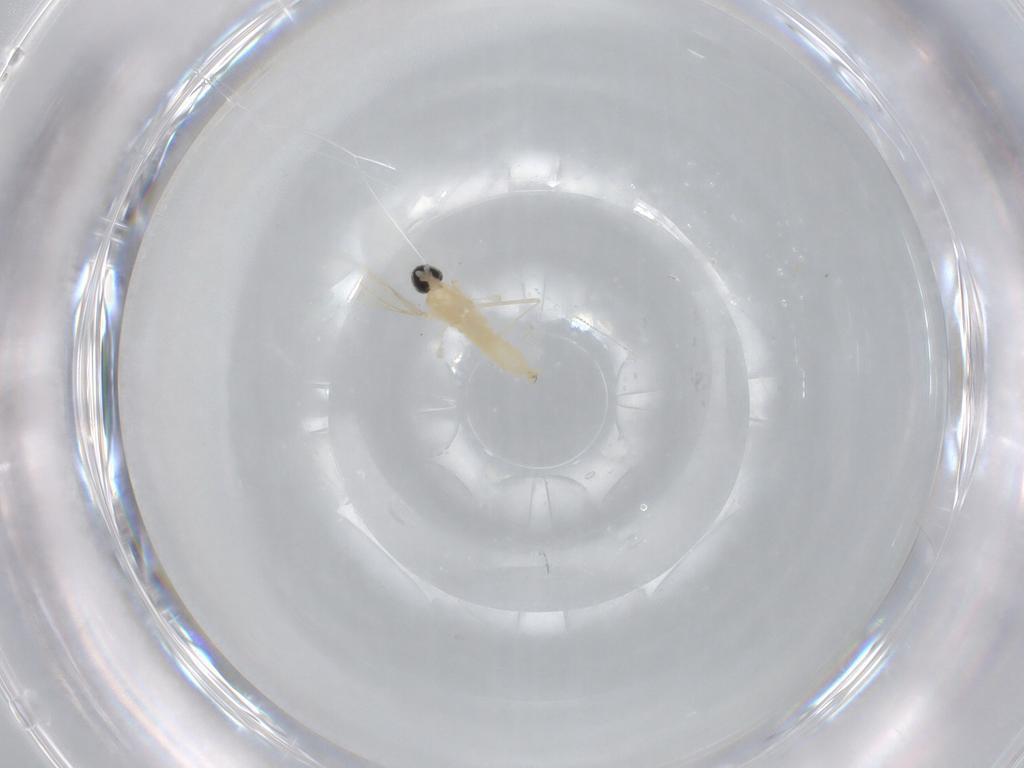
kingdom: Animalia
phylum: Arthropoda
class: Insecta
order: Diptera
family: Cecidomyiidae
